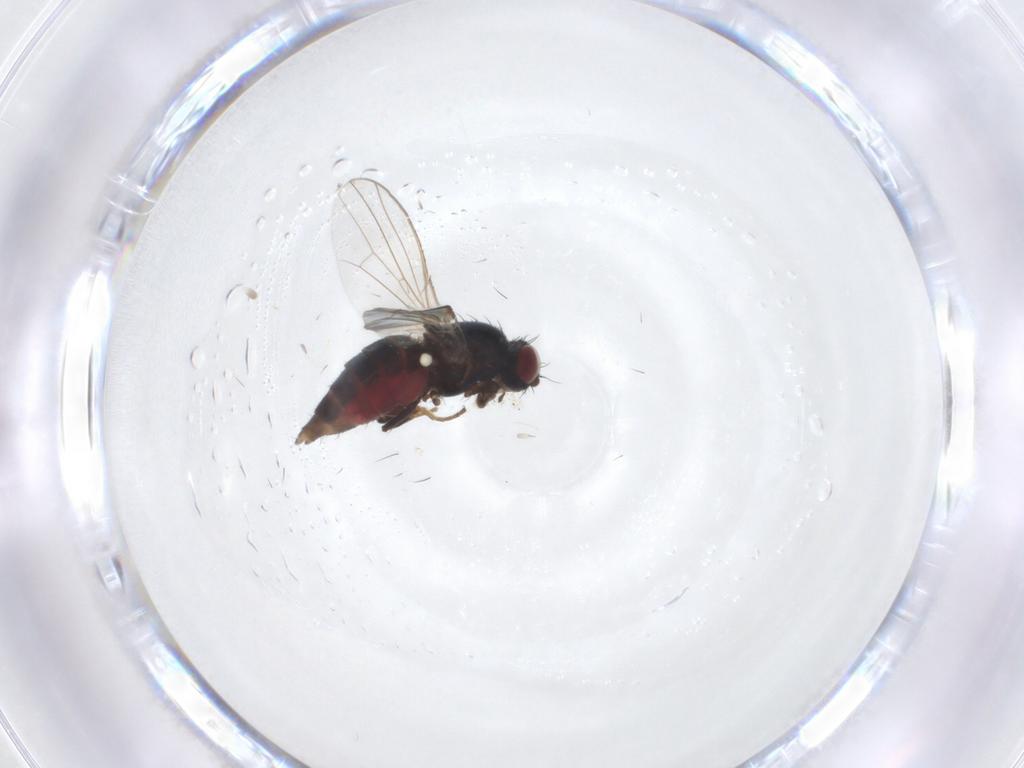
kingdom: Animalia
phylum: Arthropoda
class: Insecta
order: Diptera
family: Carnidae
